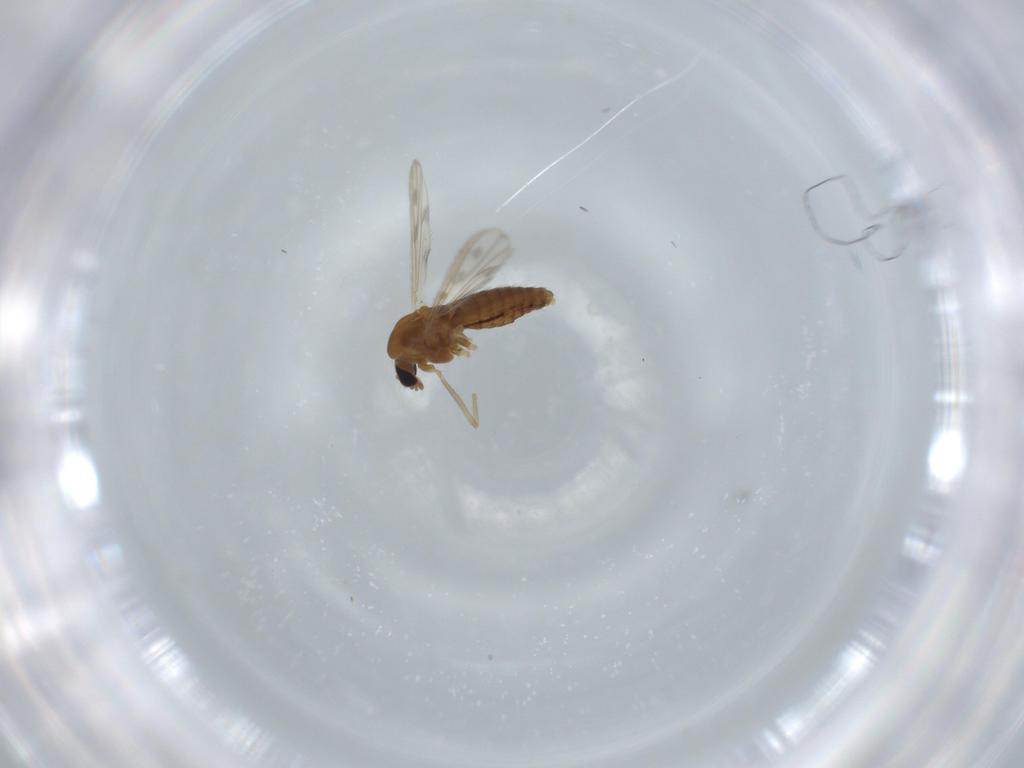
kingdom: Animalia
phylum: Arthropoda
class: Insecta
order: Diptera
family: Chironomidae
